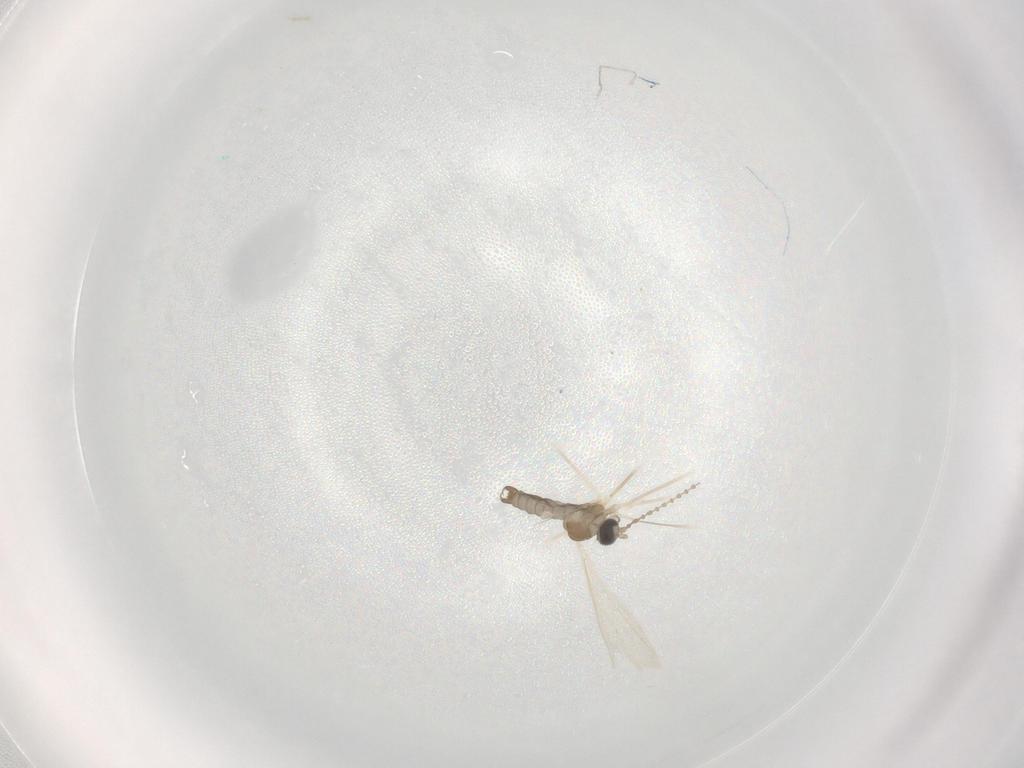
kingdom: Animalia
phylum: Arthropoda
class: Insecta
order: Diptera
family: Cecidomyiidae
